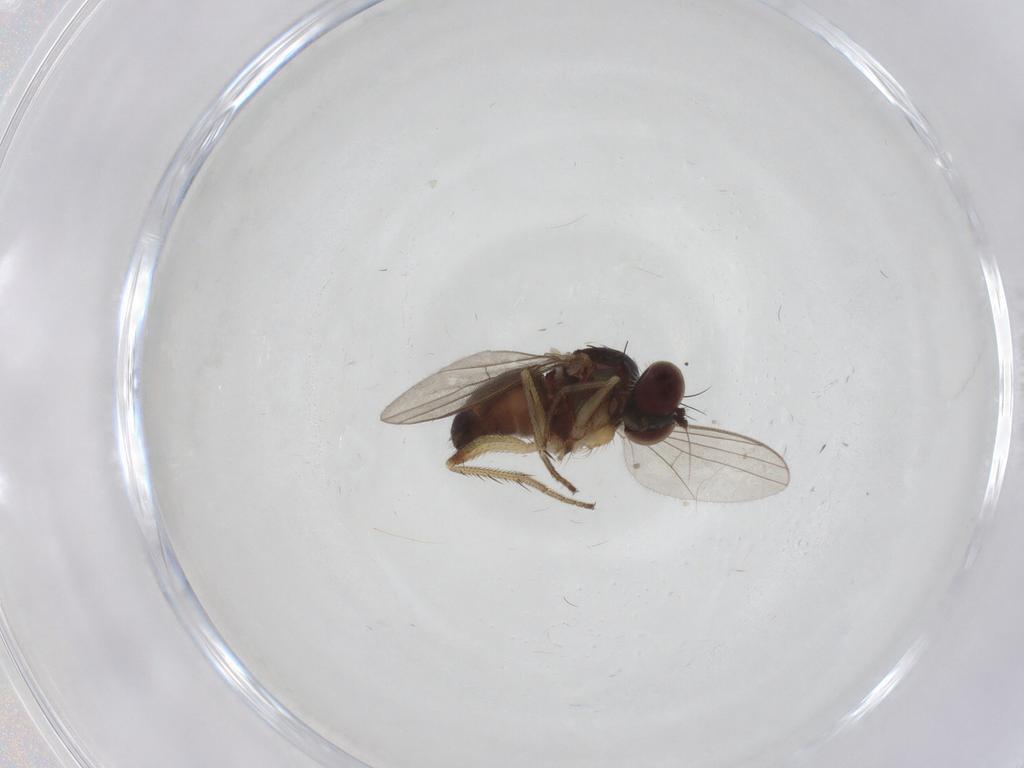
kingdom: Animalia
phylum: Arthropoda
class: Insecta
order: Diptera
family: Dolichopodidae
